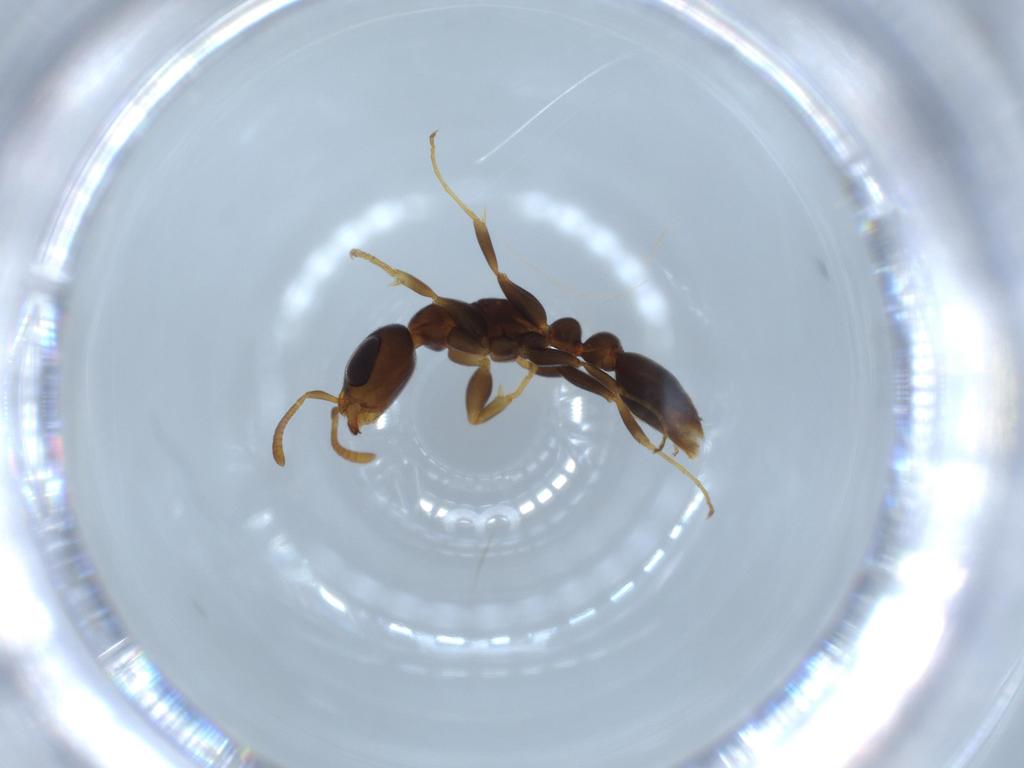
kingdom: Animalia
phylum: Arthropoda
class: Insecta
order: Hymenoptera
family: Formicidae
